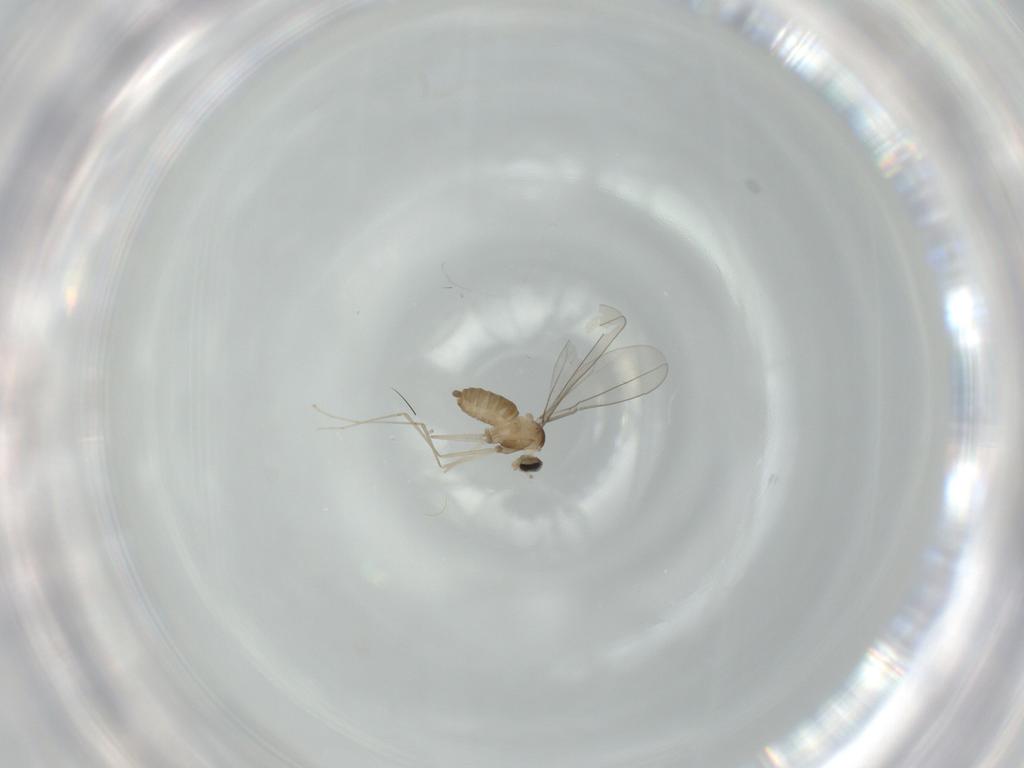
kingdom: Animalia
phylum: Arthropoda
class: Insecta
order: Diptera
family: Cecidomyiidae
